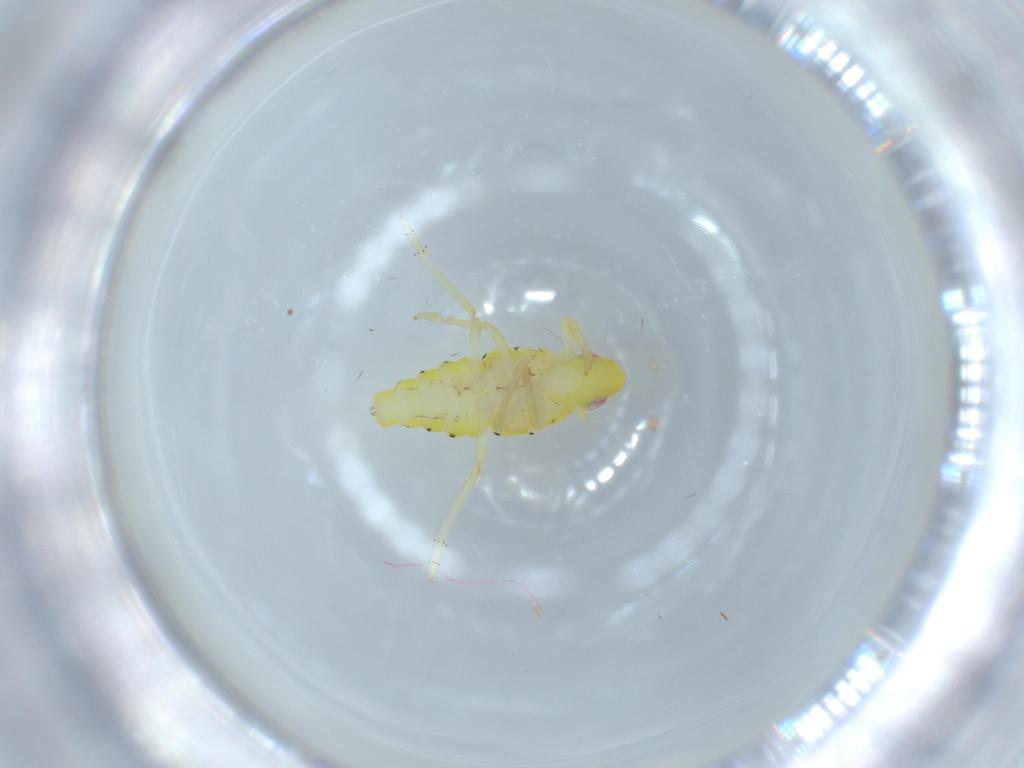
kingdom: Animalia
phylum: Arthropoda
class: Insecta
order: Hemiptera
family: Tropiduchidae
